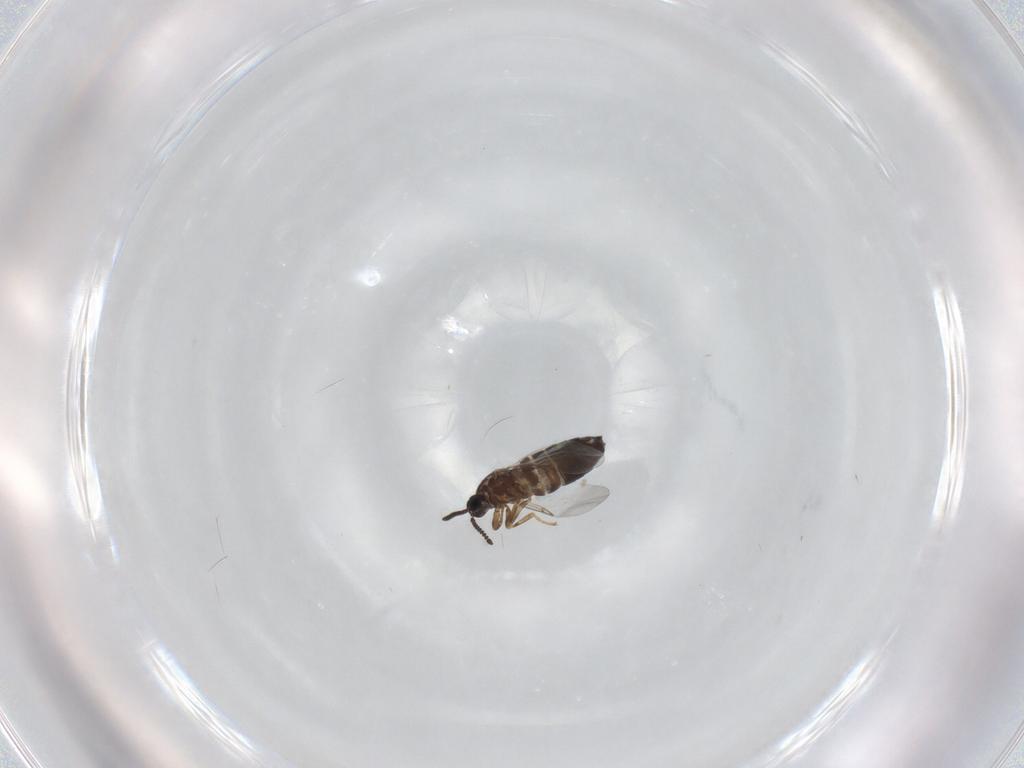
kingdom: Animalia
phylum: Arthropoda
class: Insecta
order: Diptera
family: Scatopsidae
